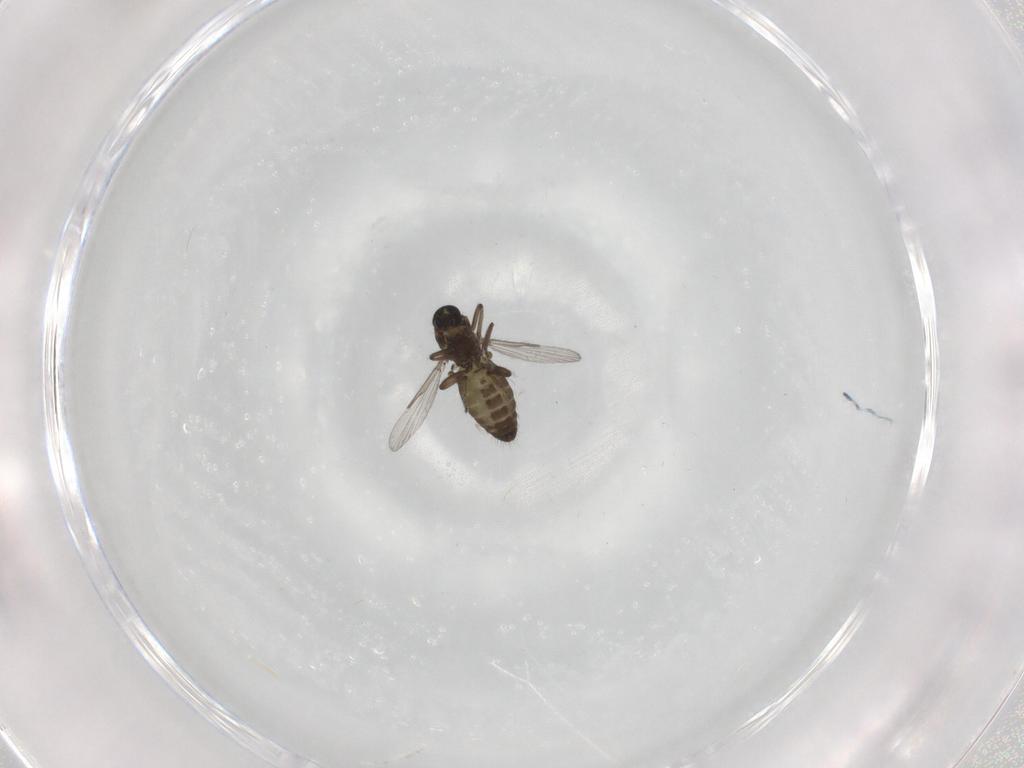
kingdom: Animalia
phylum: Arthropoda
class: Insecta
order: Diptera
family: Ceratopogonidae
